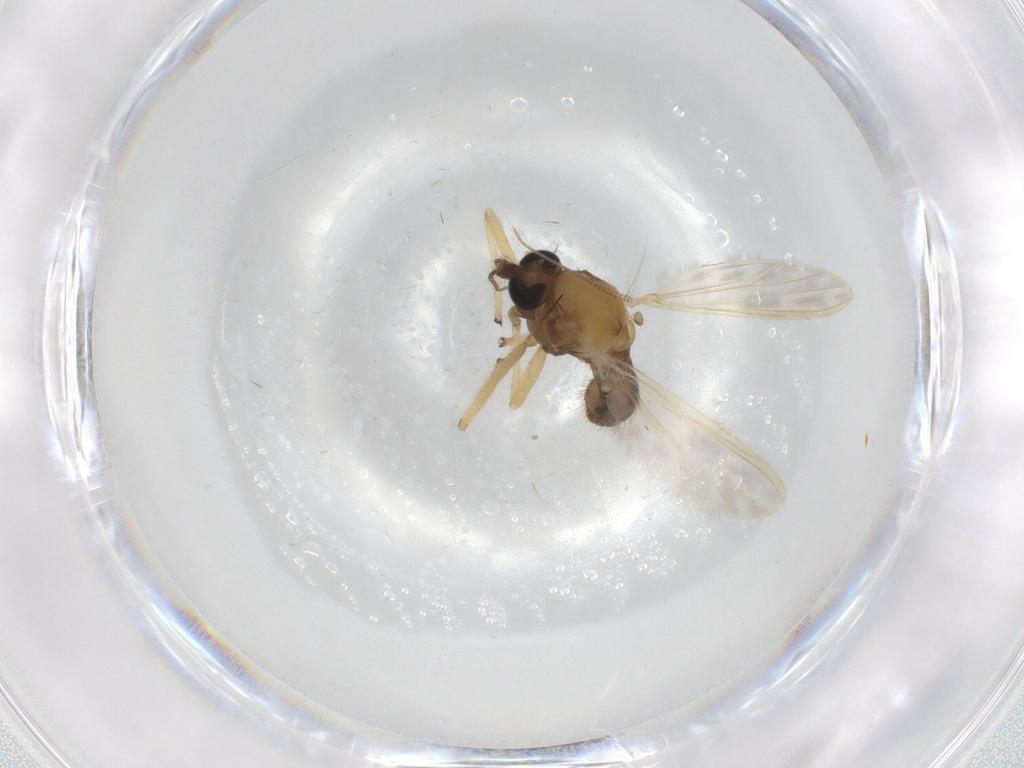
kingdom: Animalia
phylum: Arthropoda
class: Insecta
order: Diptera
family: Chironomidae
